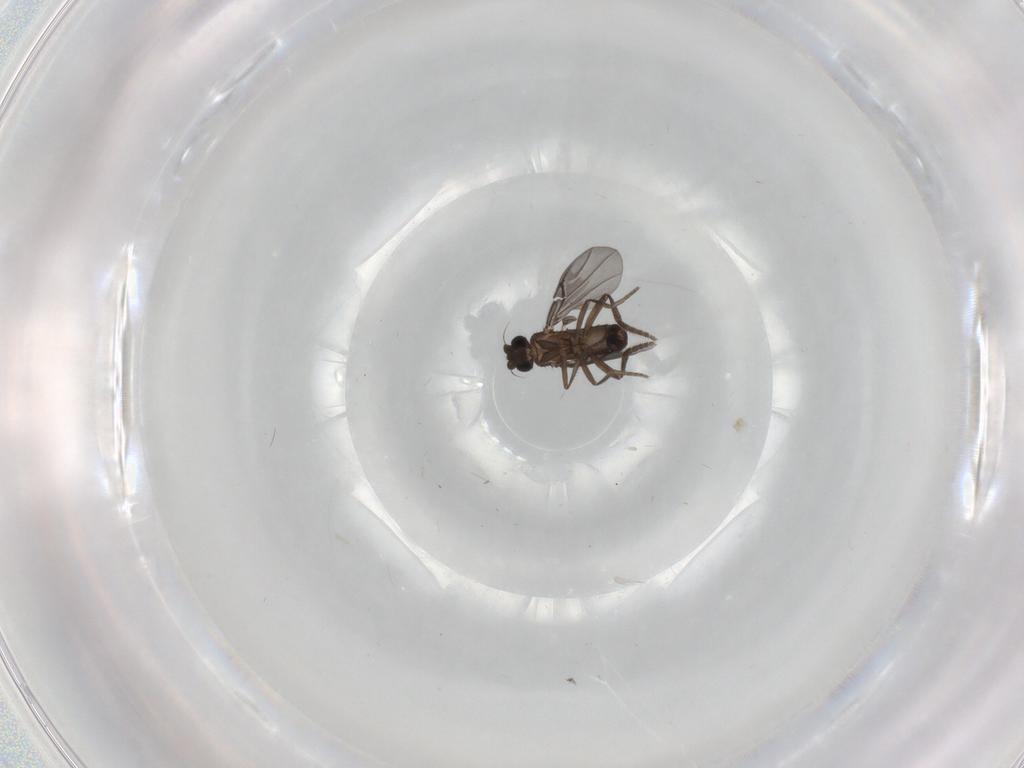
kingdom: Animalia
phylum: Arthropoda
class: Insecta
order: Diptera
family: Phoridae
